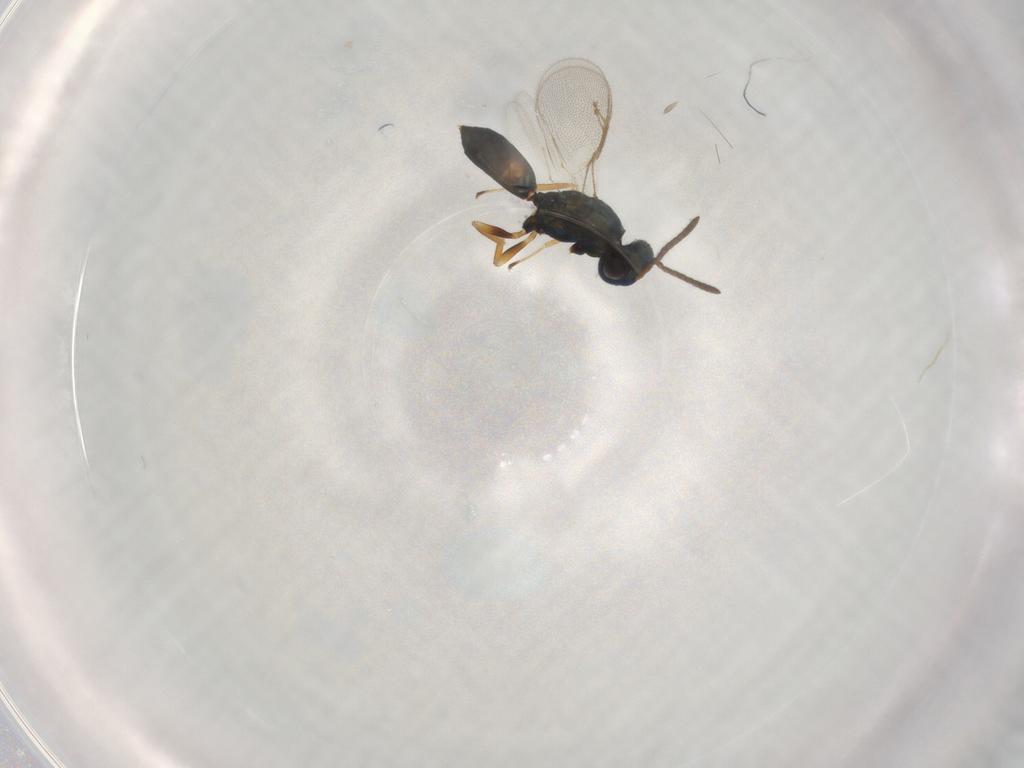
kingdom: Animalia
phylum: Arthropoda
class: Insecta
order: Hymenoptera
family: Pteromalidae
